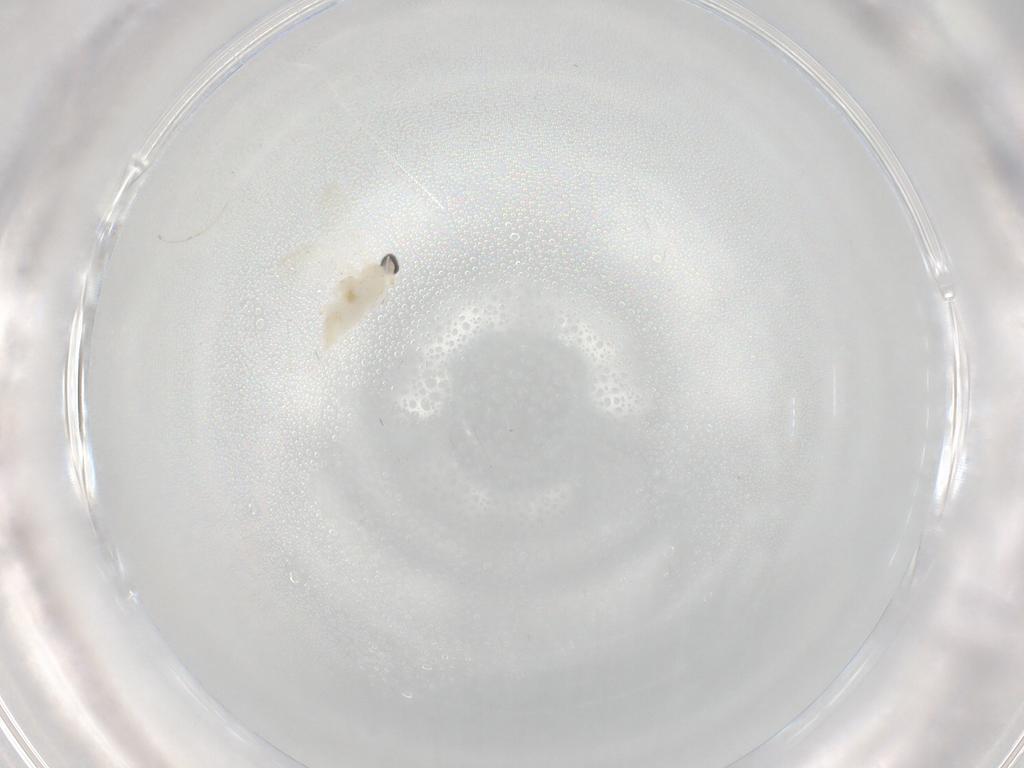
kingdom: Animalia
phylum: Arthropoda
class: Insecta
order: Diptera
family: Cecidomyiidae
